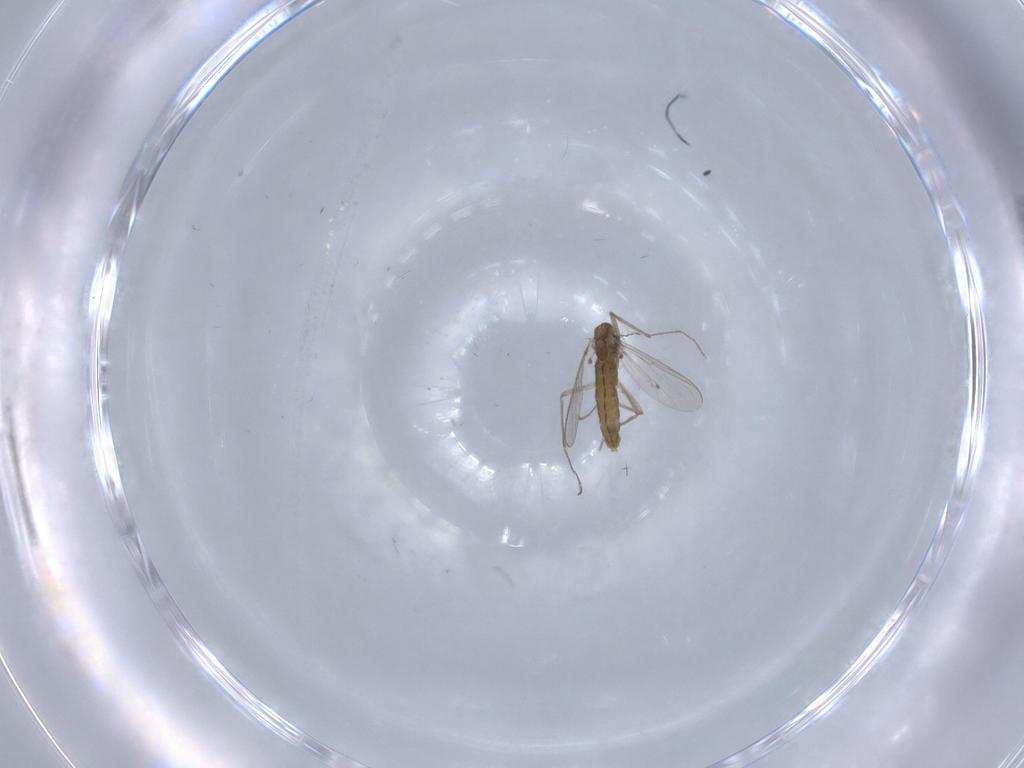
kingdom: Animalia
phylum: Arthropoda
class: Insecta
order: Diptera
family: Chironomidae
